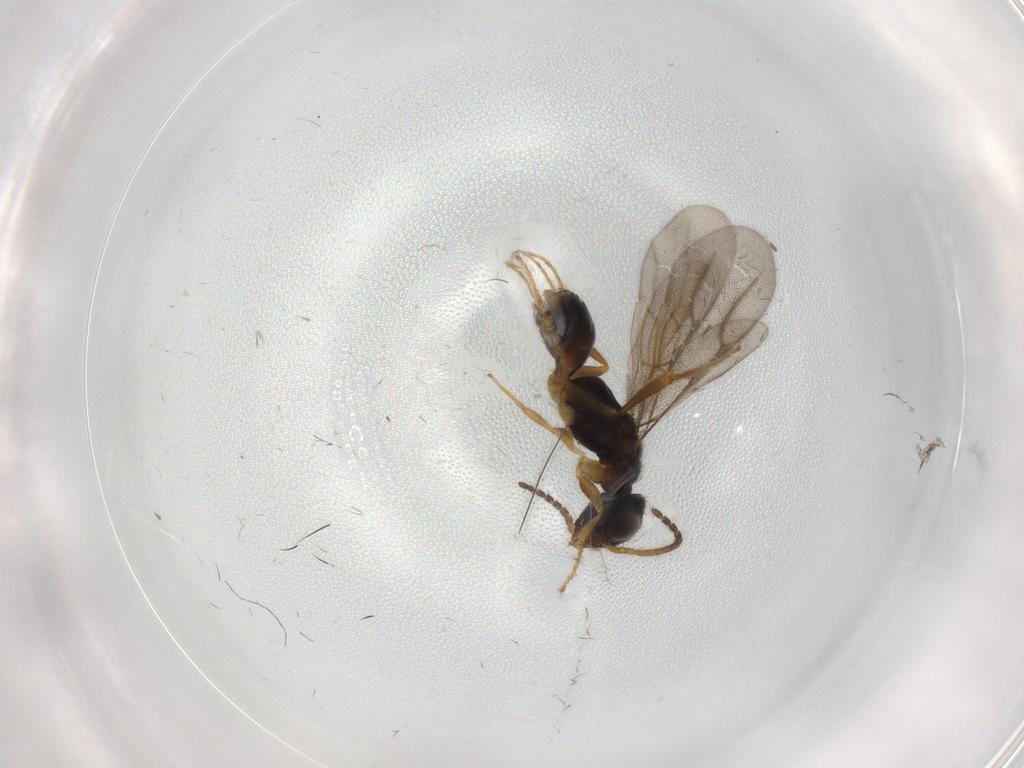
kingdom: Animalia
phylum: Arthropoda
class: Insecta
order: Hymenoptera
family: Bethylidae
